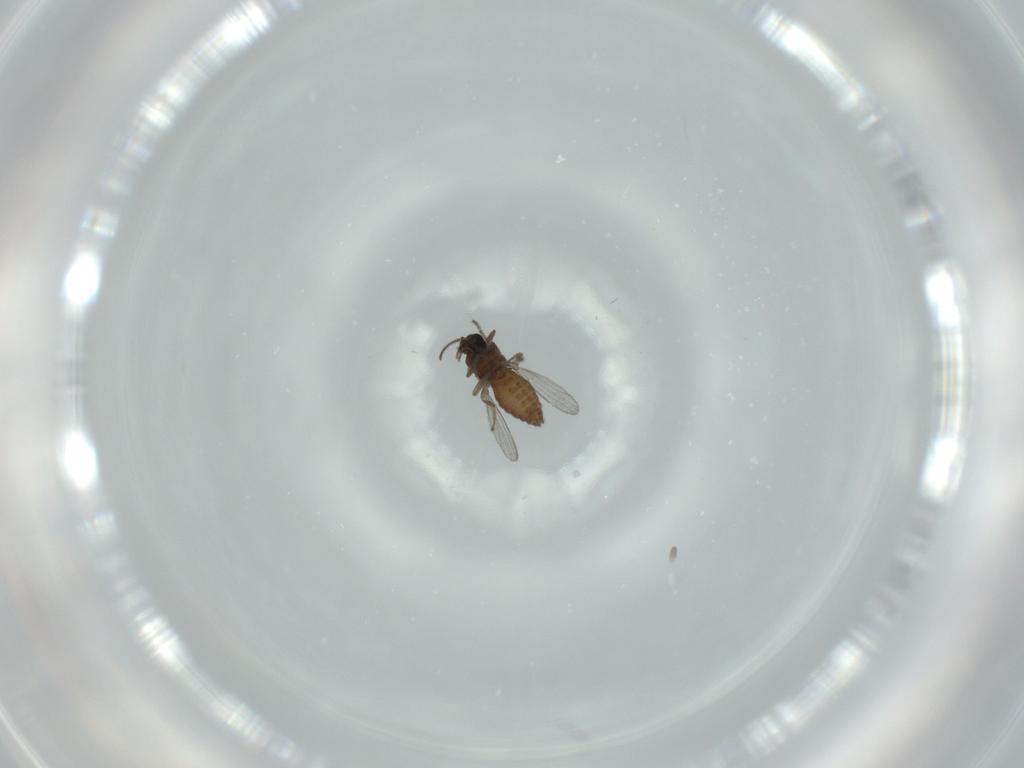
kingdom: Animalia
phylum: Arthropoda
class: Insecta
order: Diptera
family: Ceratopogonidae
